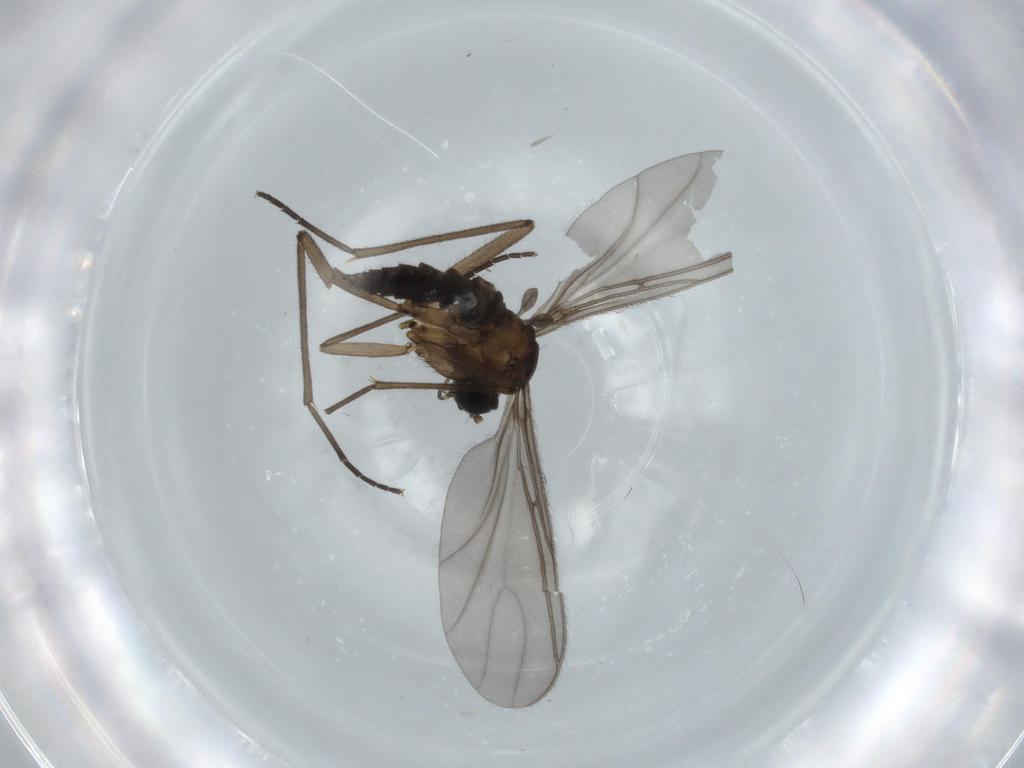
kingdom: Animalia
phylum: Arthropoda
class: Insecta
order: Diptera
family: Sciaridae
